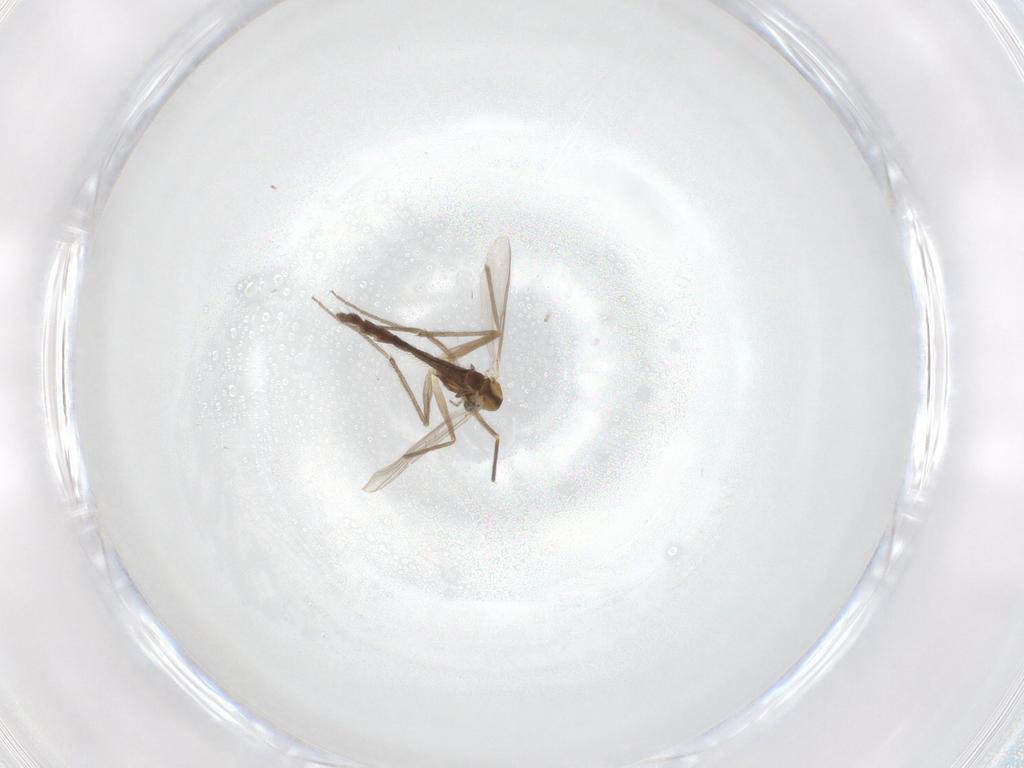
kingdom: Animalia
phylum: Arthropoda
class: Insecta
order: Diptera
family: Chironomidae
